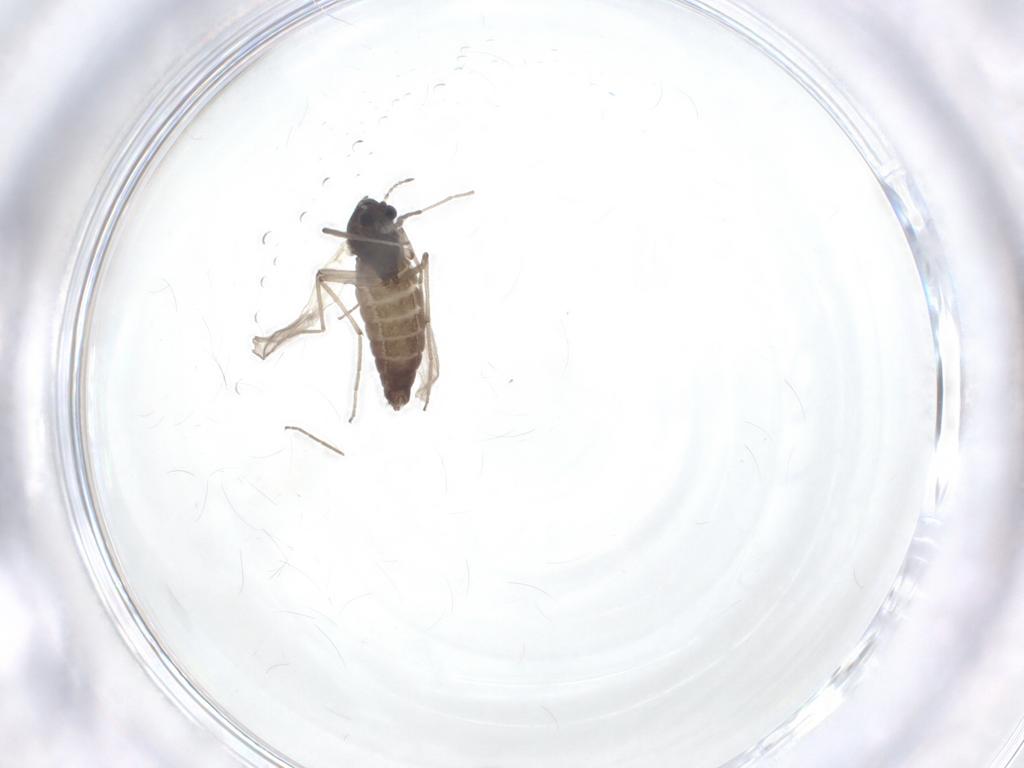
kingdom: Animalia
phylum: Arthropoda
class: Insecta
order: Diptera
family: Chironomidae
